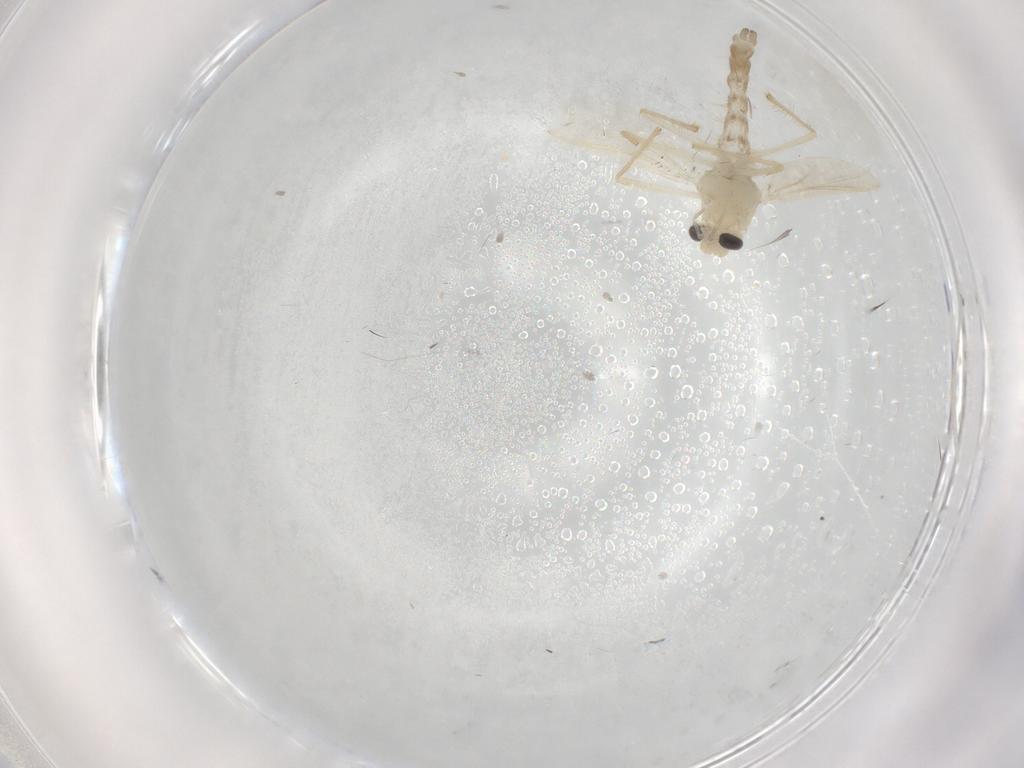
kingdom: Animalia
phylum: Arthropoda
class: Insecta
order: Diptera
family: Chironomidae
